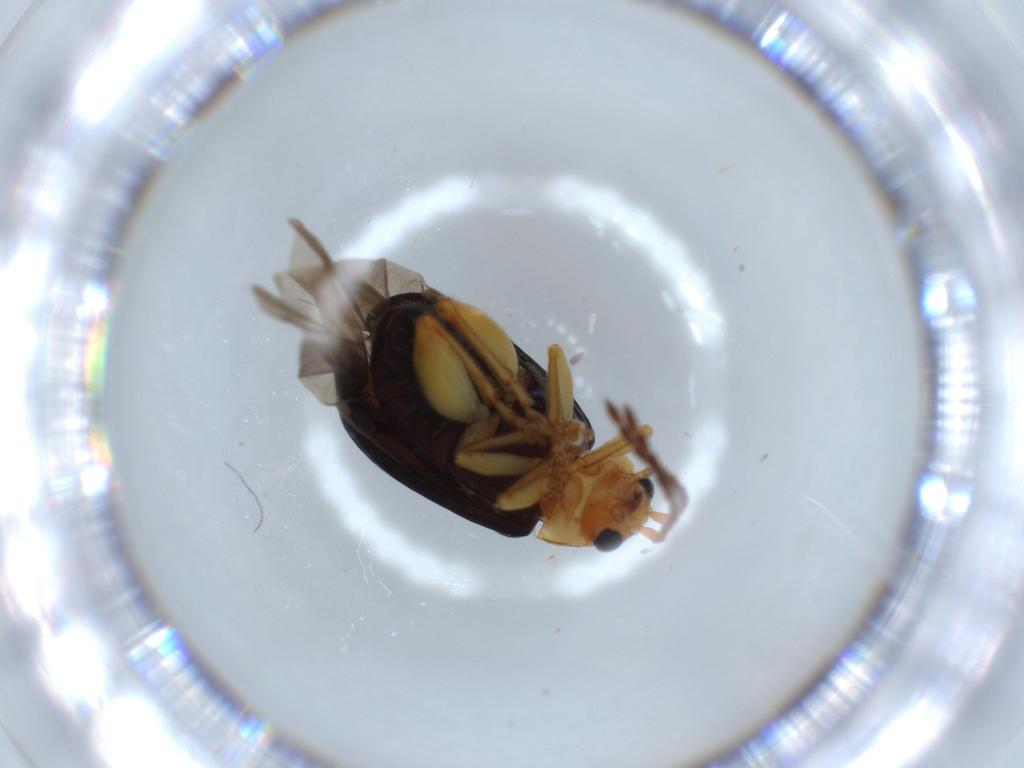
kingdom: Animalia
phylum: Arthropoda
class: Insecta
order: Coleoptera
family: Chrysomelidae
